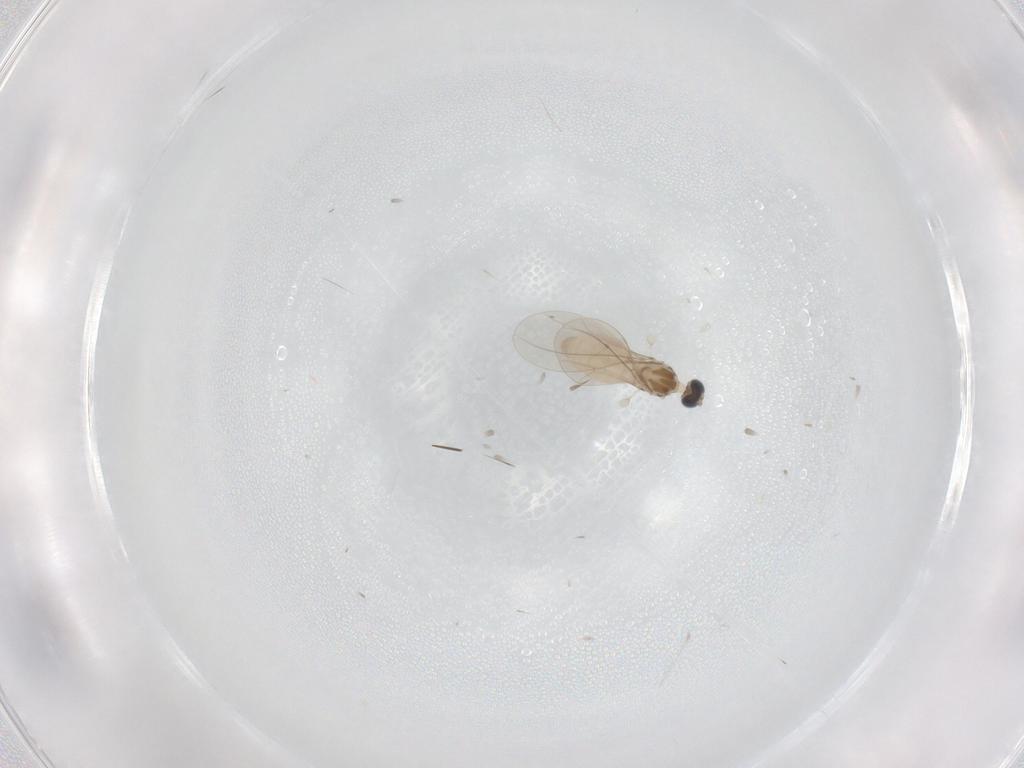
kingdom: Animalia
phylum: Arthropoda
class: Insecta
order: Diptera
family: Cecidomyiidae
